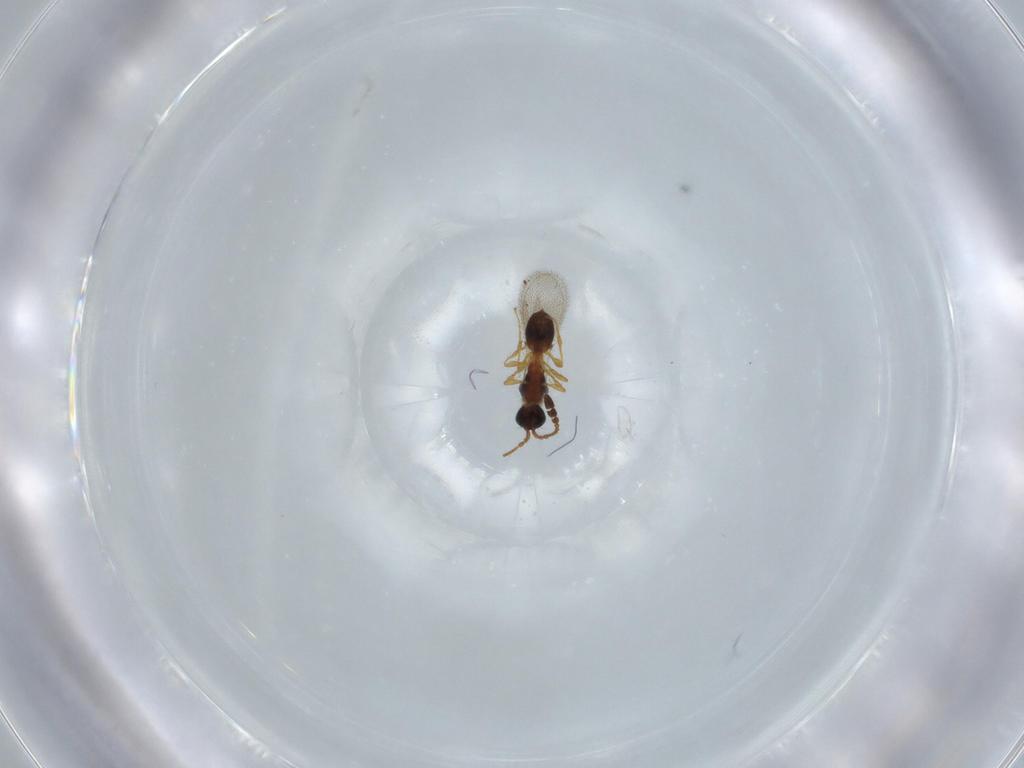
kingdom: Animalia
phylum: Arthropoda
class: Insecta
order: Hymenoptera
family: Diapriidae
